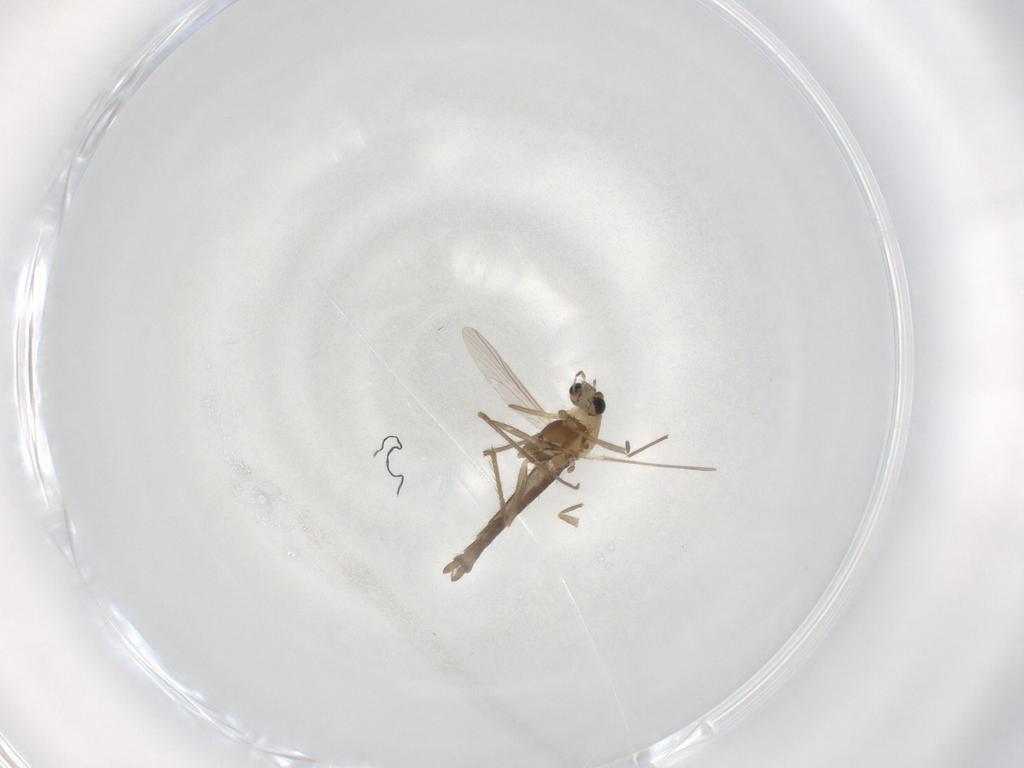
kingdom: Animalia
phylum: Arthropoda
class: Insecta
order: Diptera
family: Chironomidae
